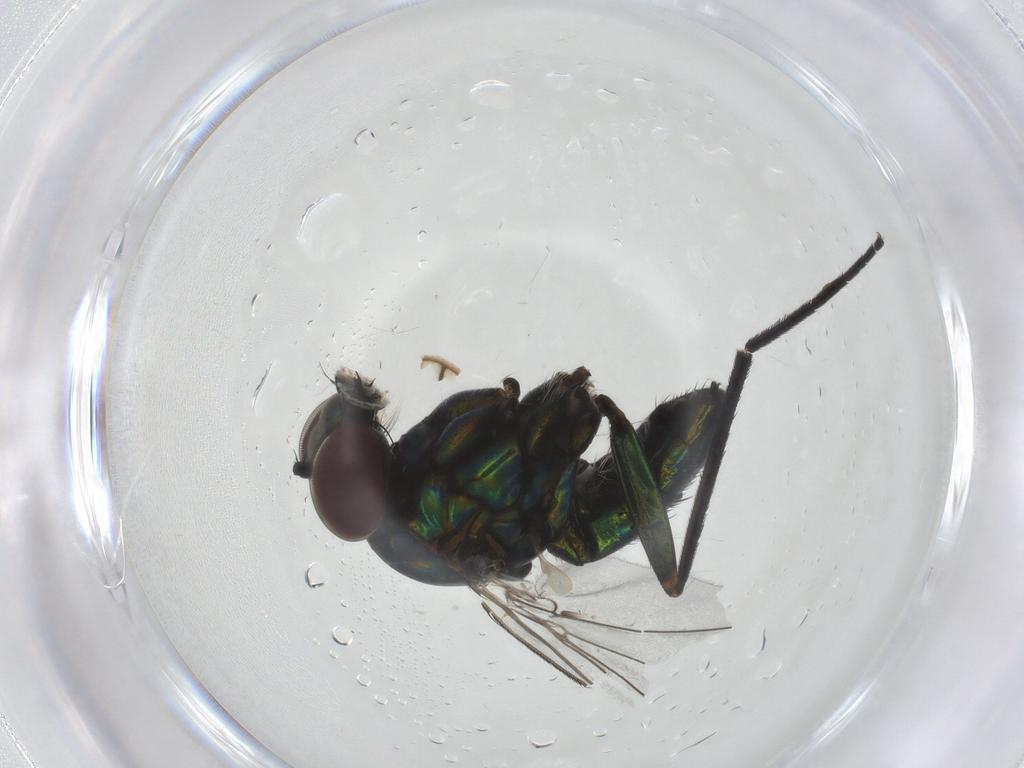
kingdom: Animalia
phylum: Arthropoda
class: Insecta
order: Diptera
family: Dolichopodidae
